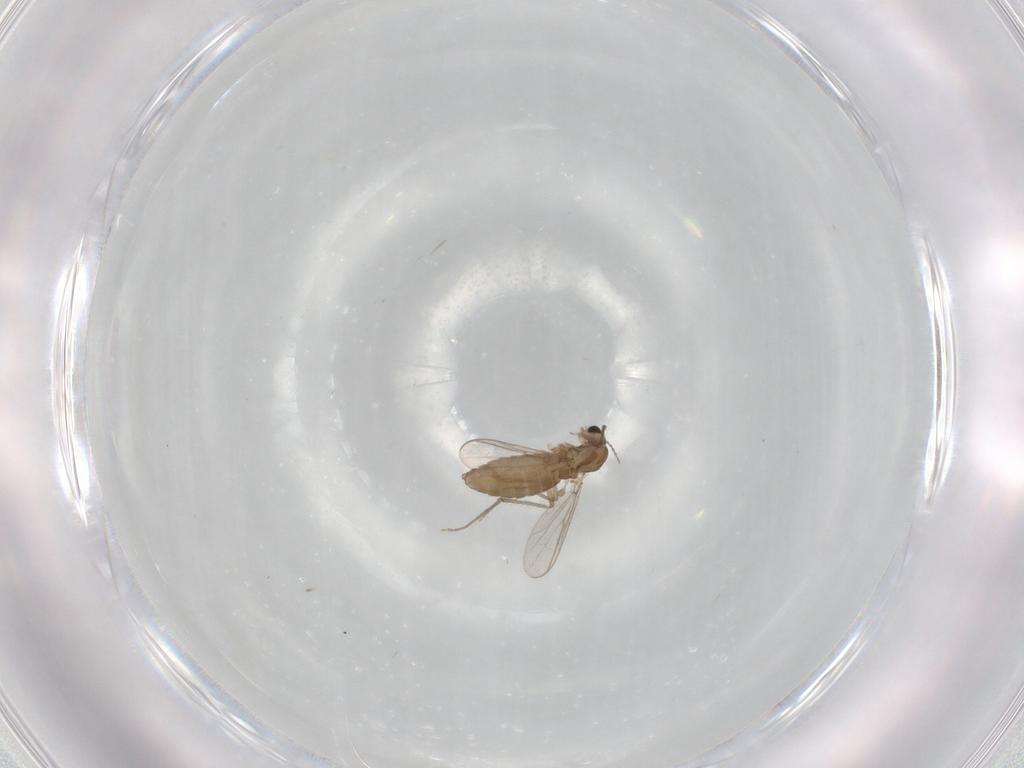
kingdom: Animalia
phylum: Arthropoda
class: Insecta
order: Diptera
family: Chironomidae
